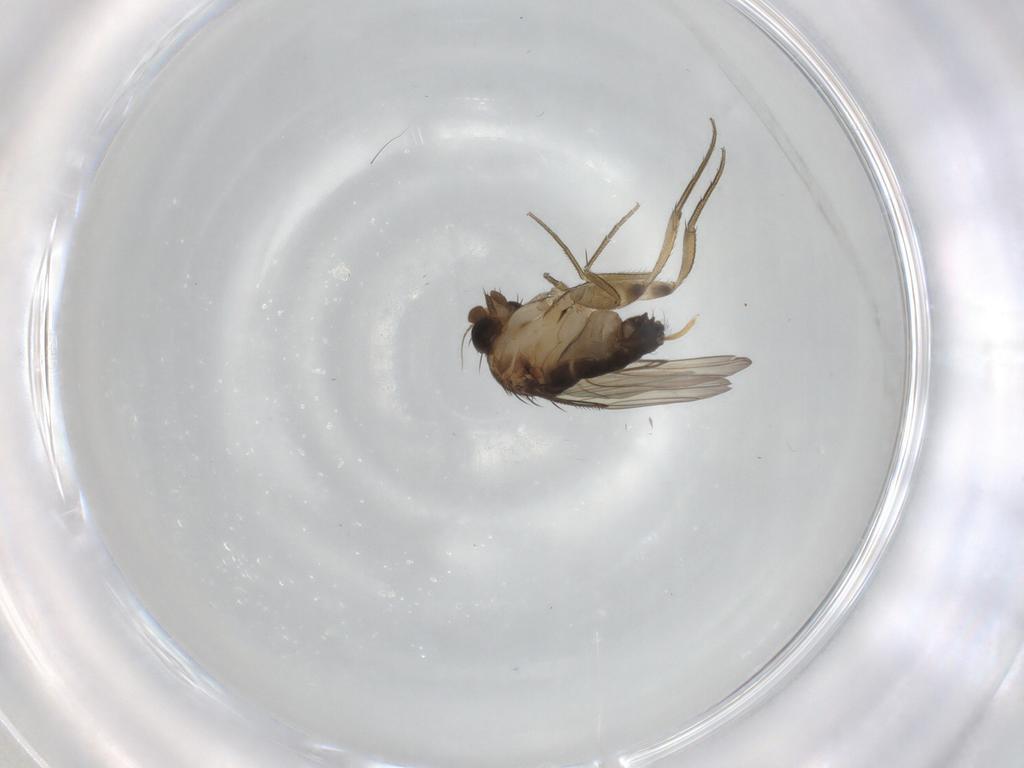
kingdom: Animalia
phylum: Arthropoda
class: Insecta
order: Diptera
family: Phoridae
